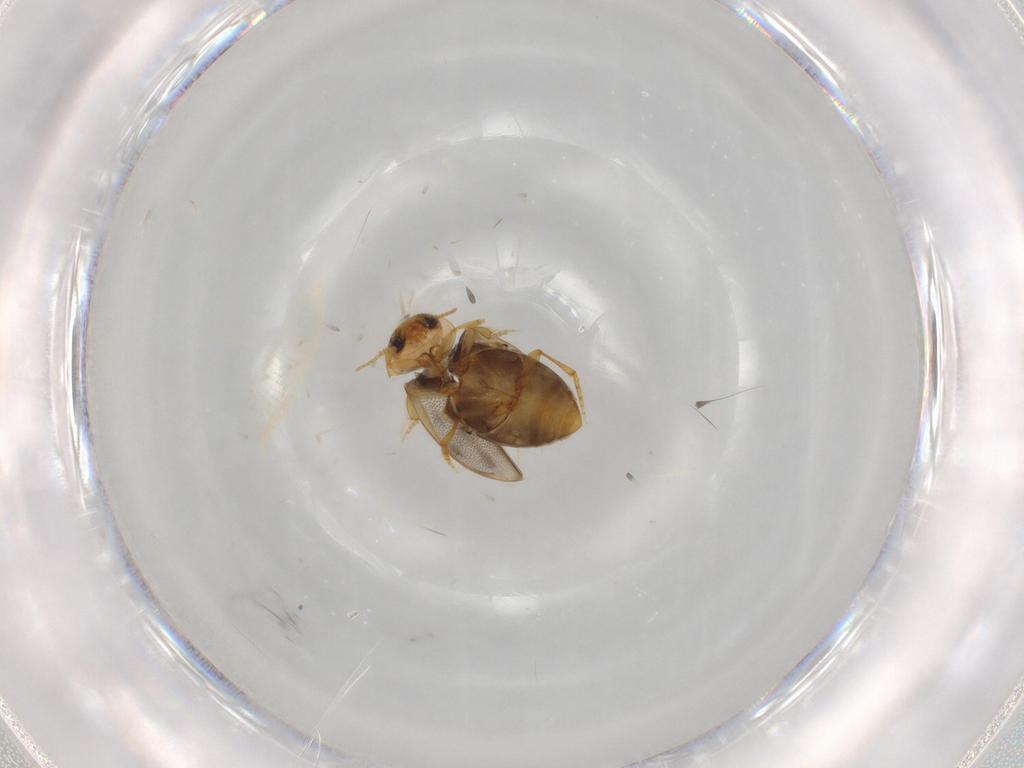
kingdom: Animalia
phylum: Arthropoda
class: Insecta
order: Coleoptera
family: Dytiscidae
